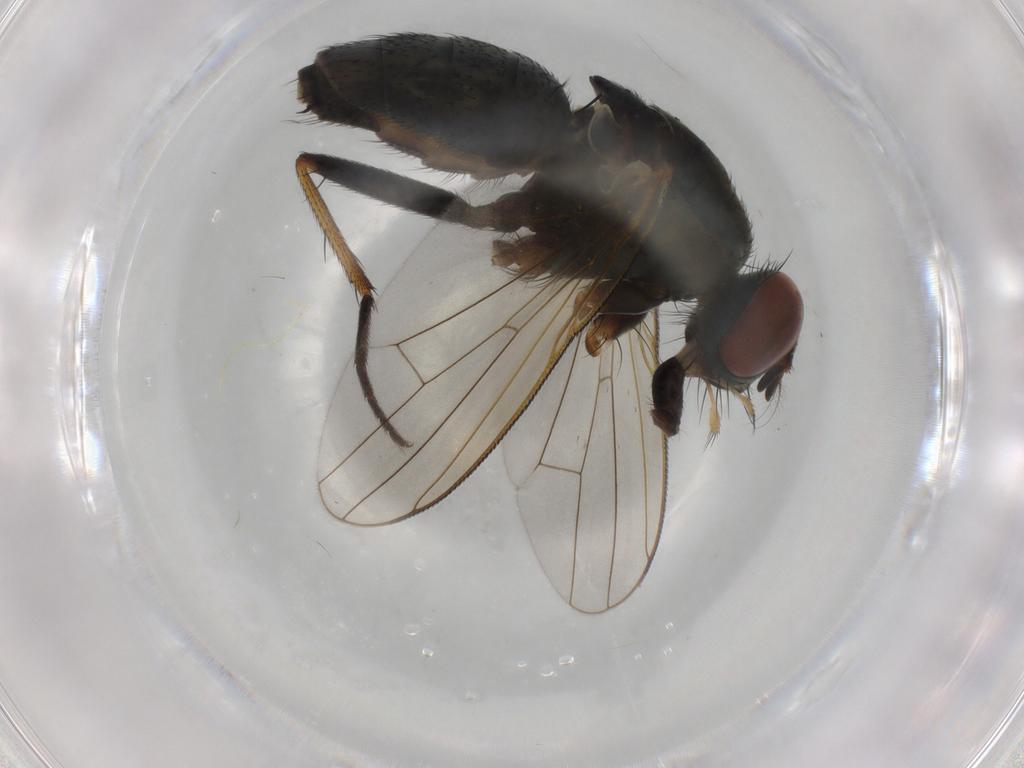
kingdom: Animalia
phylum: Arthropoda
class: Insecta
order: Diptera
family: Muscidae
